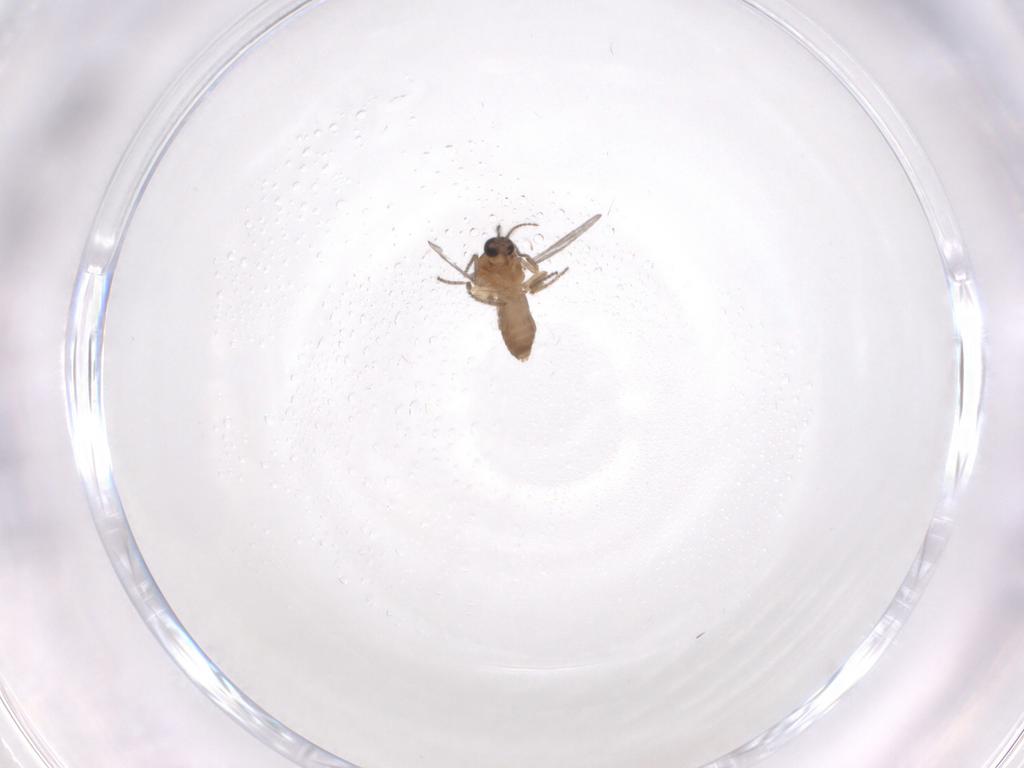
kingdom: Animalia
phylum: Arthropoda
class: Insecta
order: Diptera
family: Ceratopogonidae
